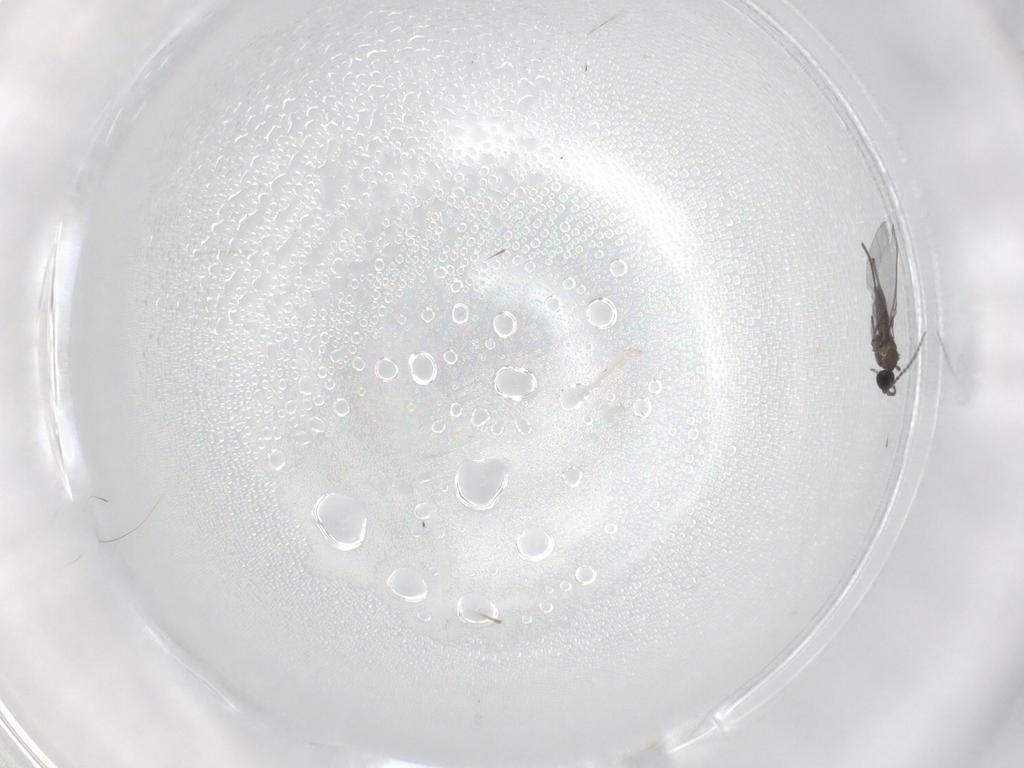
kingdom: Animalia
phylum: Arthropoda
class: Insecta
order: Diptera
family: Sciaridae
